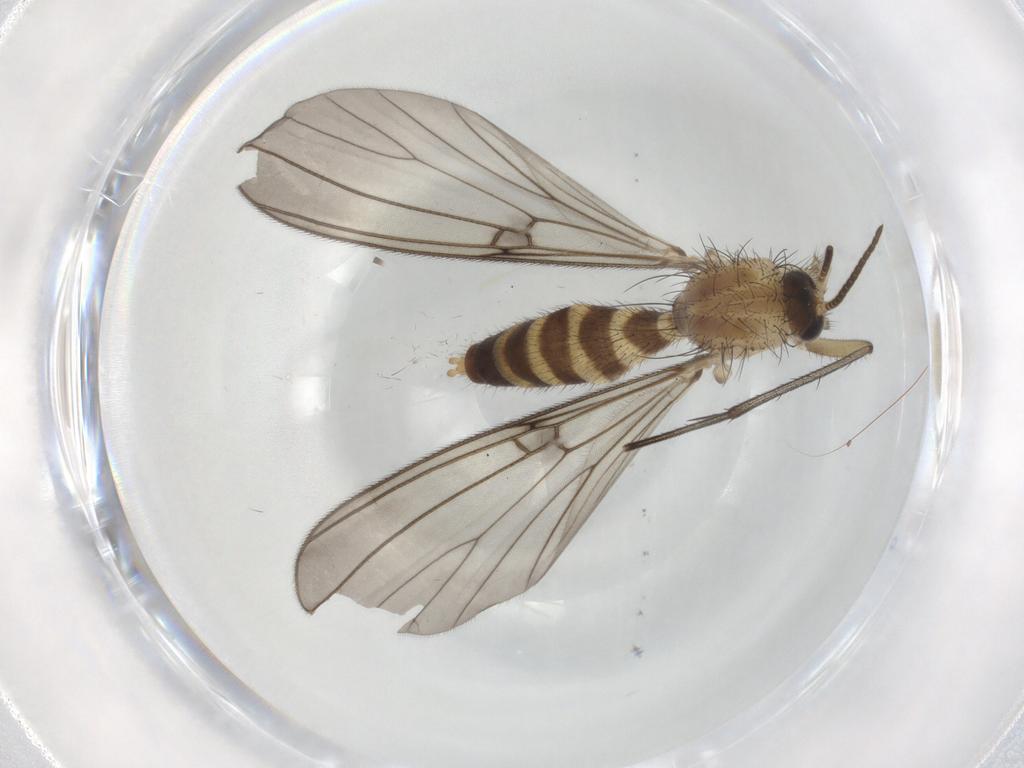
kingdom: Animalia
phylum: Arthropoda
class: Insecta
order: Diptera
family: Mycetophilidae
